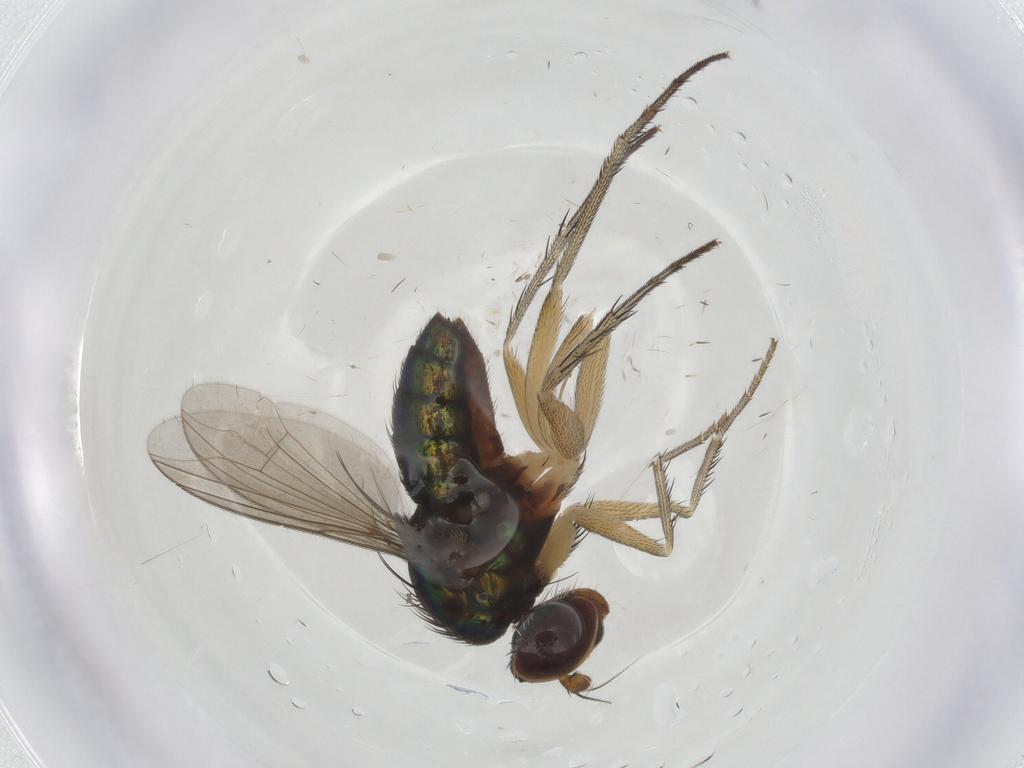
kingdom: Animalia
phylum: Arthropoda
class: Insecta
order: Diptera
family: Dolichopodidae
